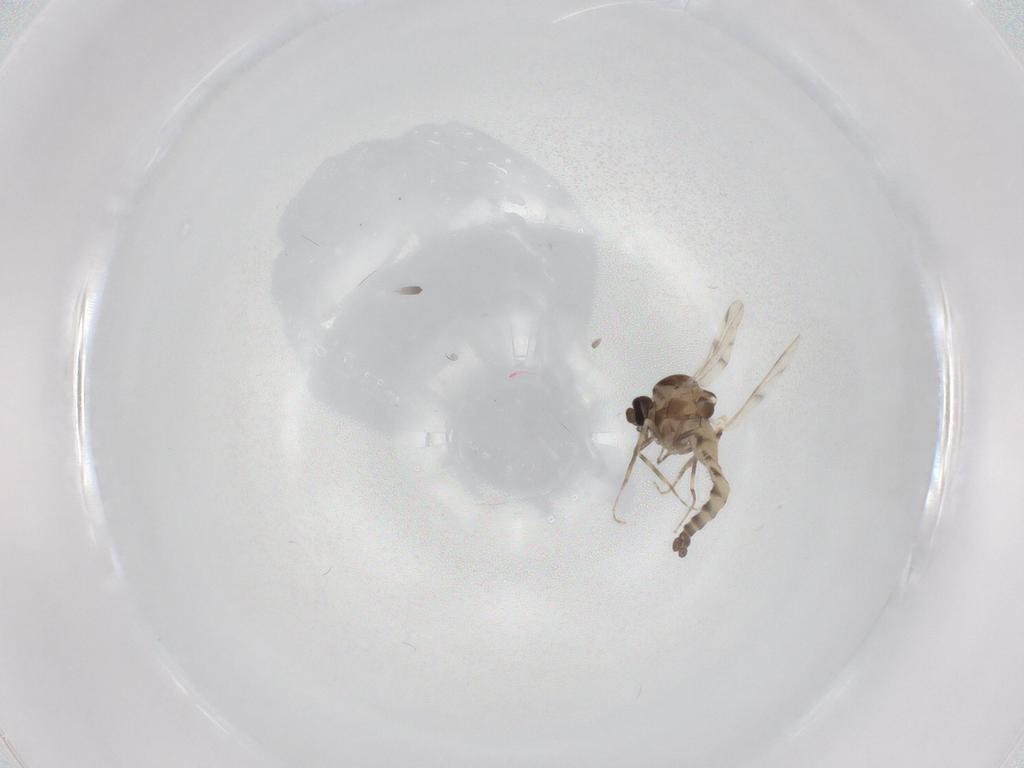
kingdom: Animalia
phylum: Arthropoda
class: Insecta
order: Diptera
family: Ceratopogonidae
